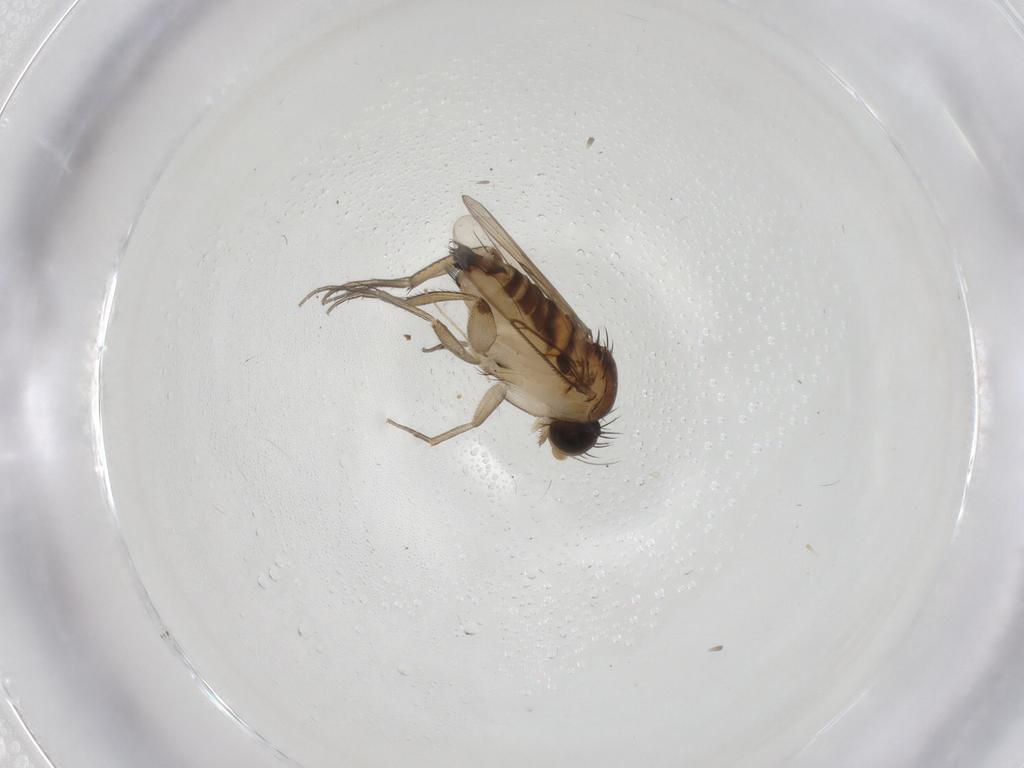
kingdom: Animalia
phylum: Arthropoda
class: Insecta
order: Diptera
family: Phoridae
